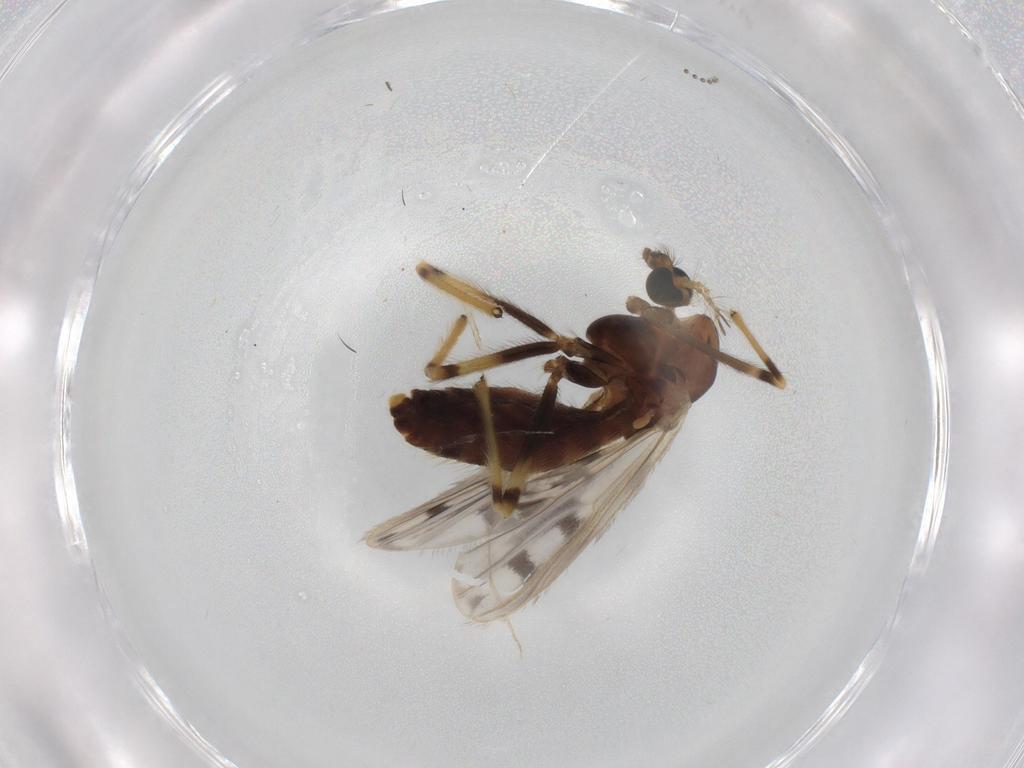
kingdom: Animalia
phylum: Arthropoda
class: Insecta
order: Diptera
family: Chironomidae
